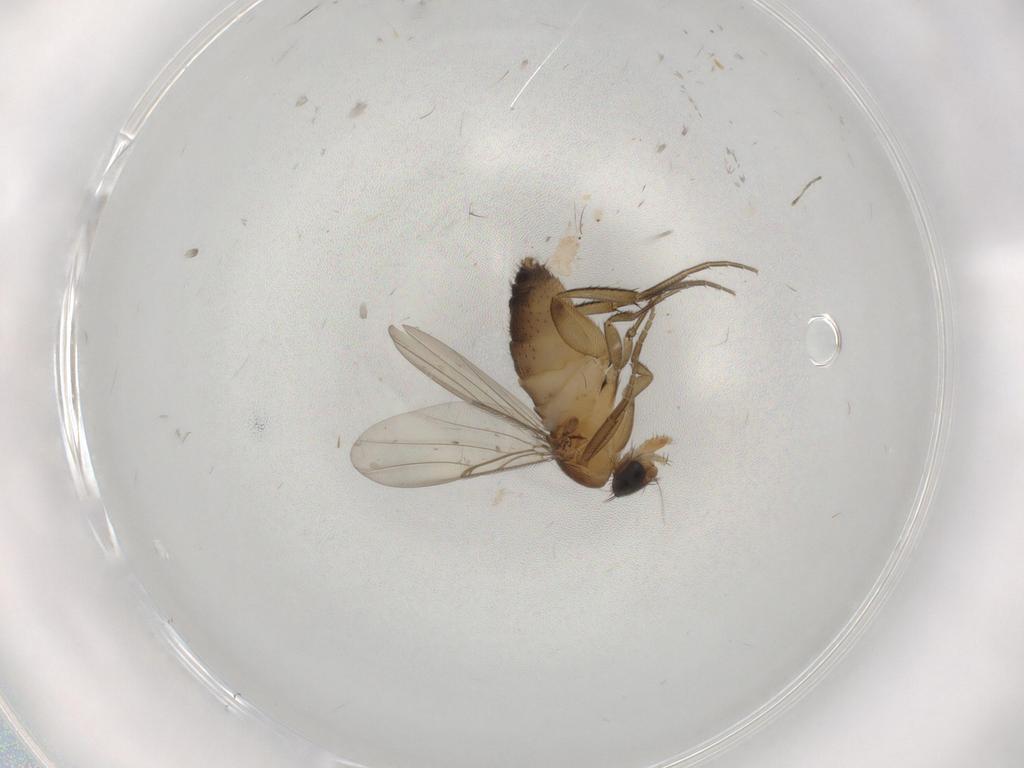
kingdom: Animalia
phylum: Arthropoda
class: Insecta
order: Diptera
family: Phoridae
